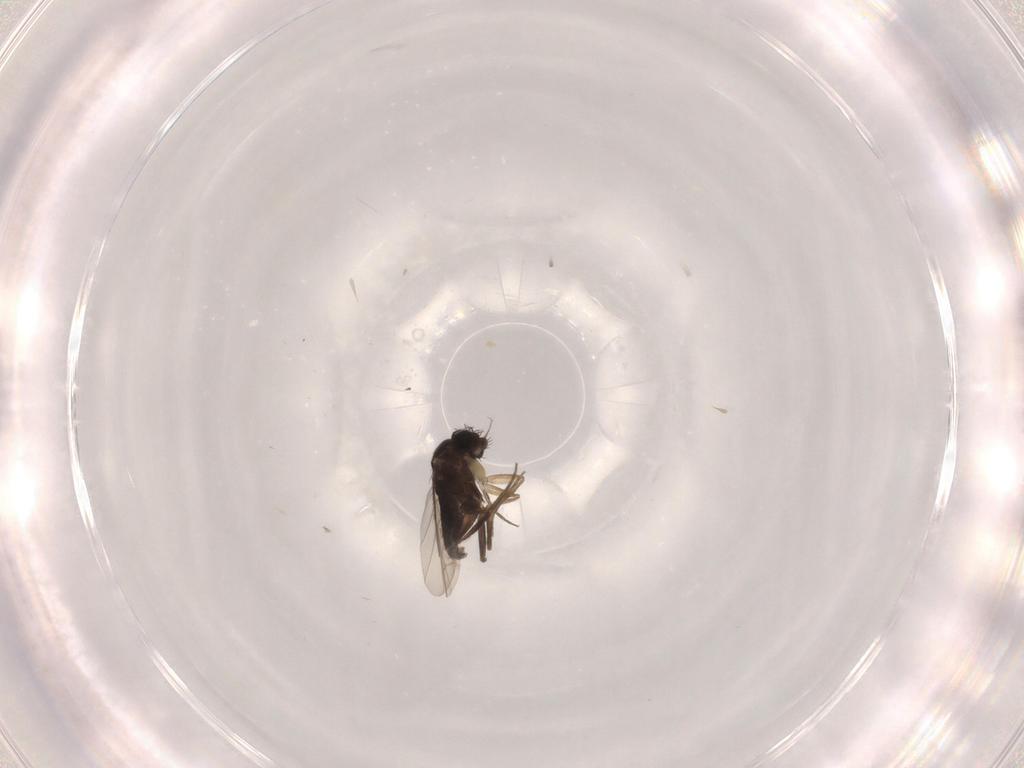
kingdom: Animalia
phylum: Arthropoda
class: Insecta
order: Diptera
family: Phoridae
